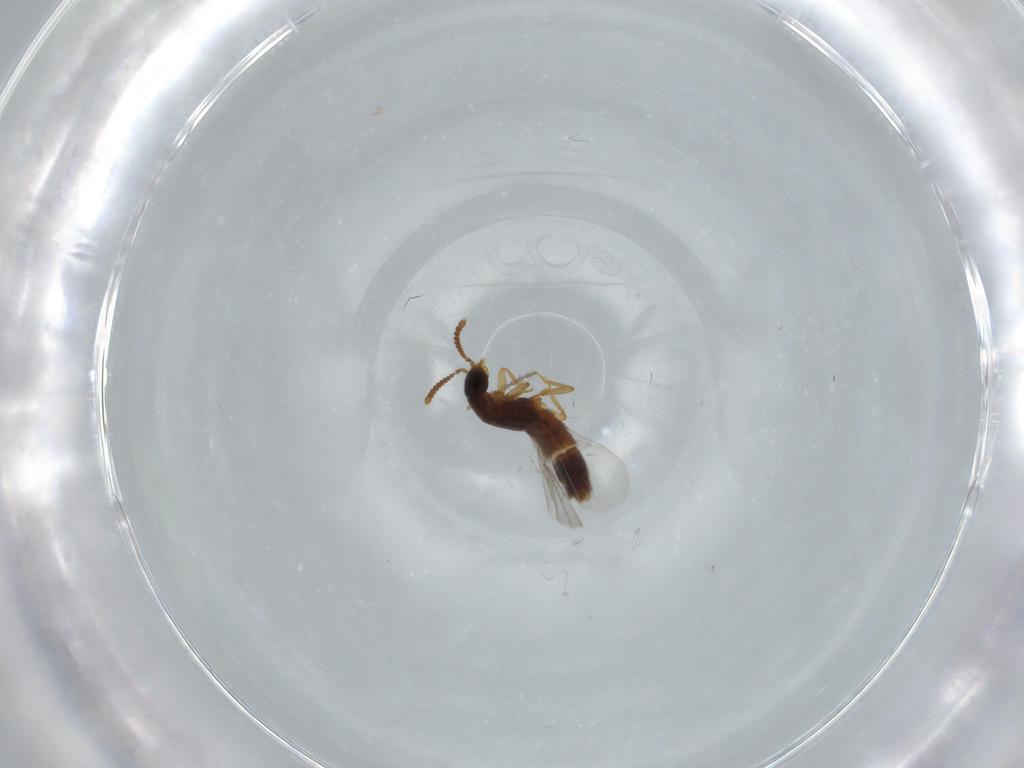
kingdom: Animalia
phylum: Arthropoda
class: Insecta
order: Coleoptera
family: Staphylinidae
